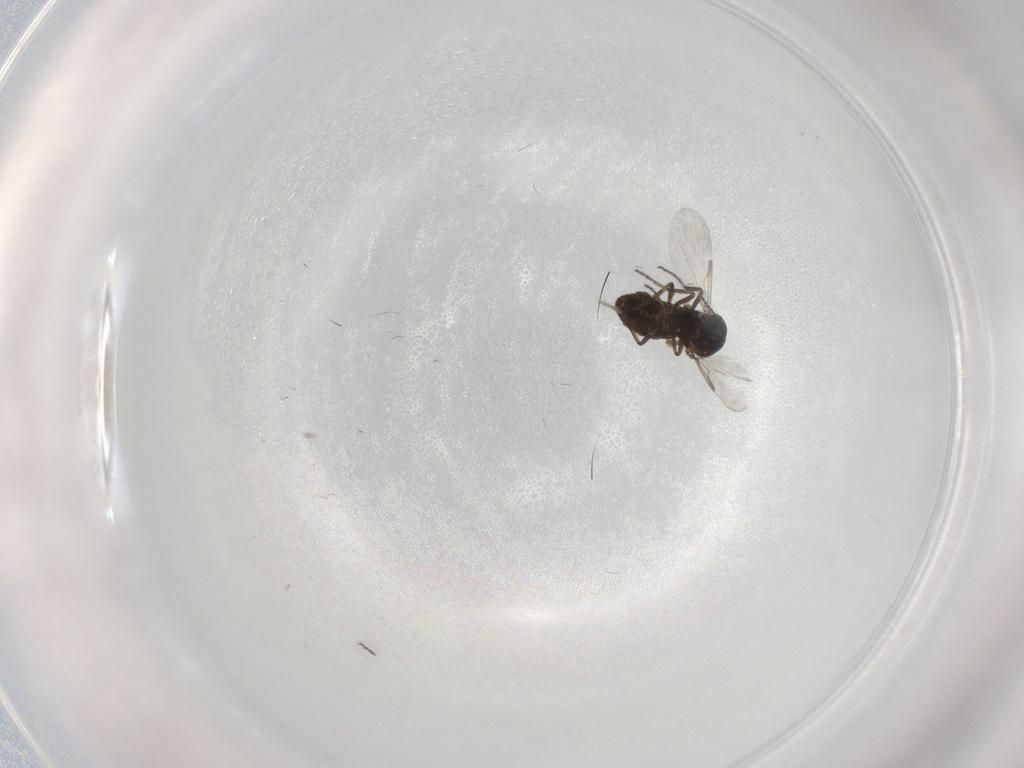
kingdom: Animalia
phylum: Arthropoda
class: Insecta
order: Diptera
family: Ceratopogonidae
